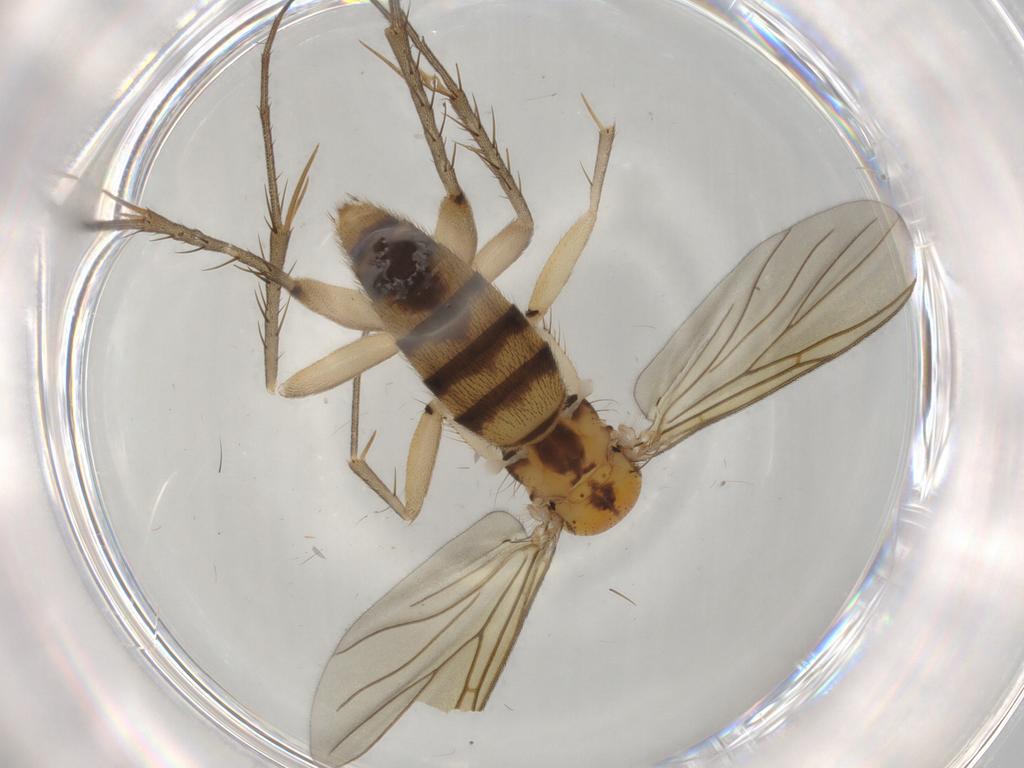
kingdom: Animalia
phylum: Arthropoda
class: Insecta
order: Diptera
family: Mycetophilidae
